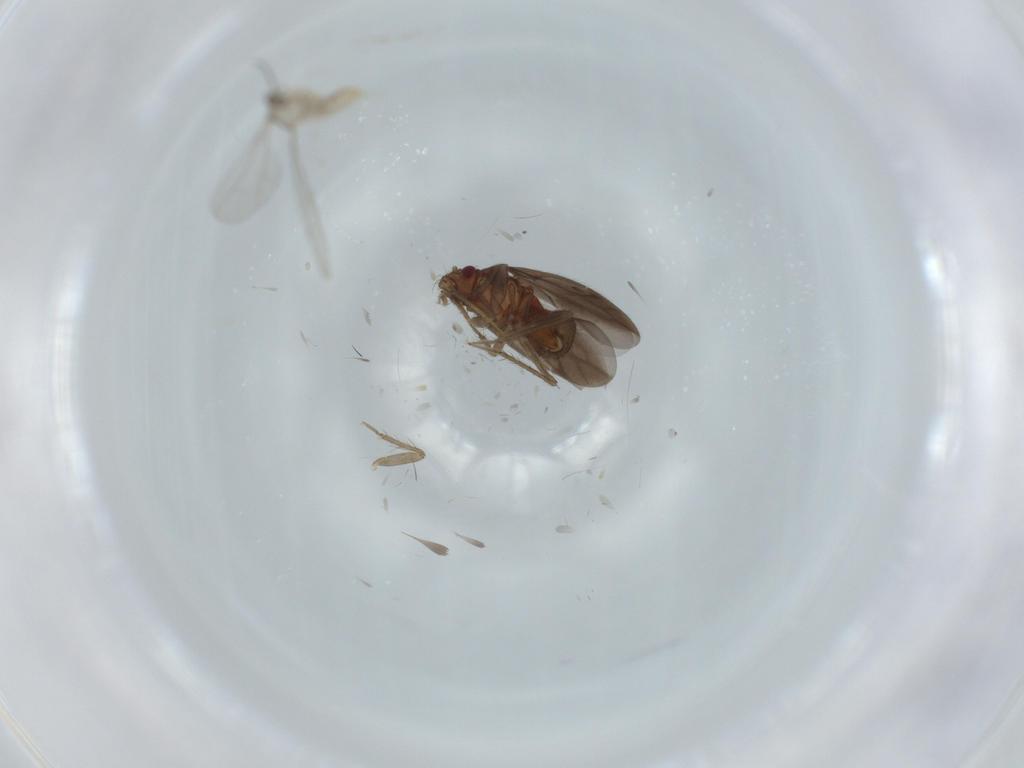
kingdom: Animalia
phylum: Arthropoda
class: Insecta
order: Hemiptera
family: Ceratocombidae
